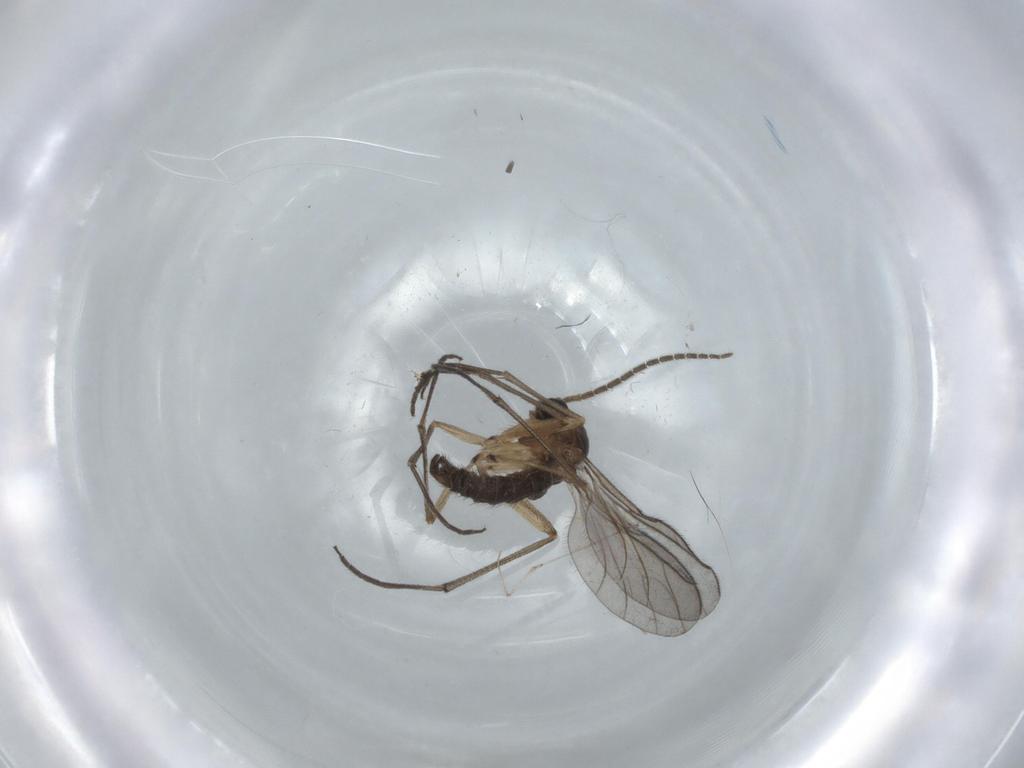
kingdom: Animalia
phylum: Arthropoda
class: Insecta
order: Diptera
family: Sciaridae
